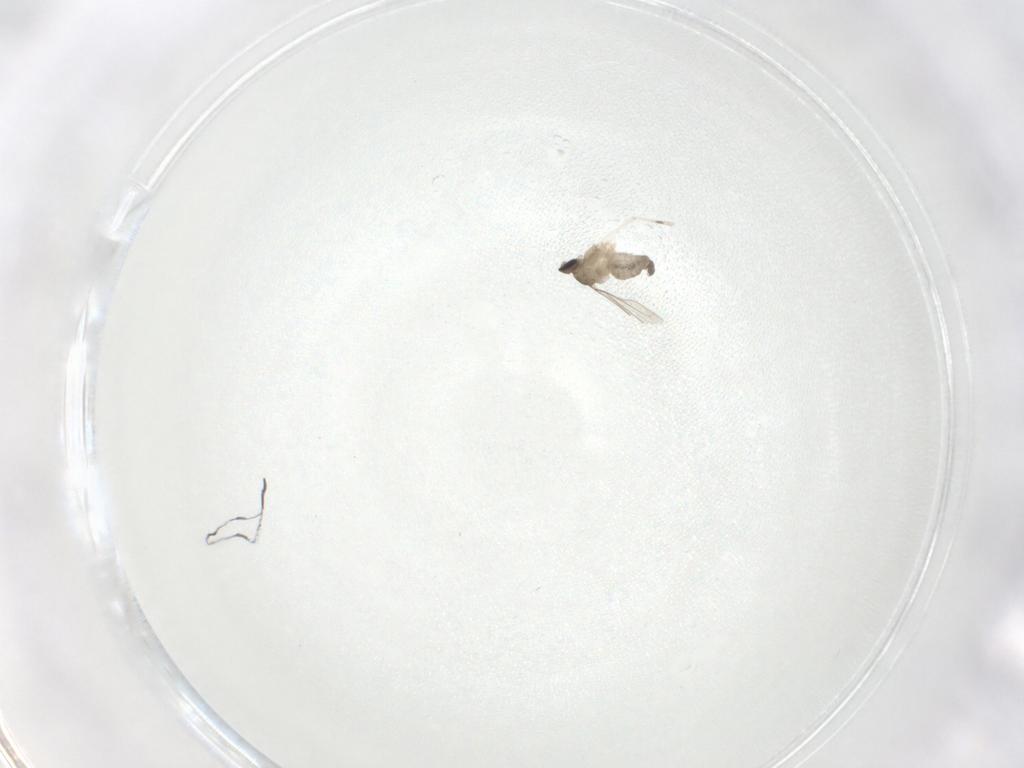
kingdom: Animalia
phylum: Arthropoda
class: Insecta
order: Diptera
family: Cecidomyiidae
